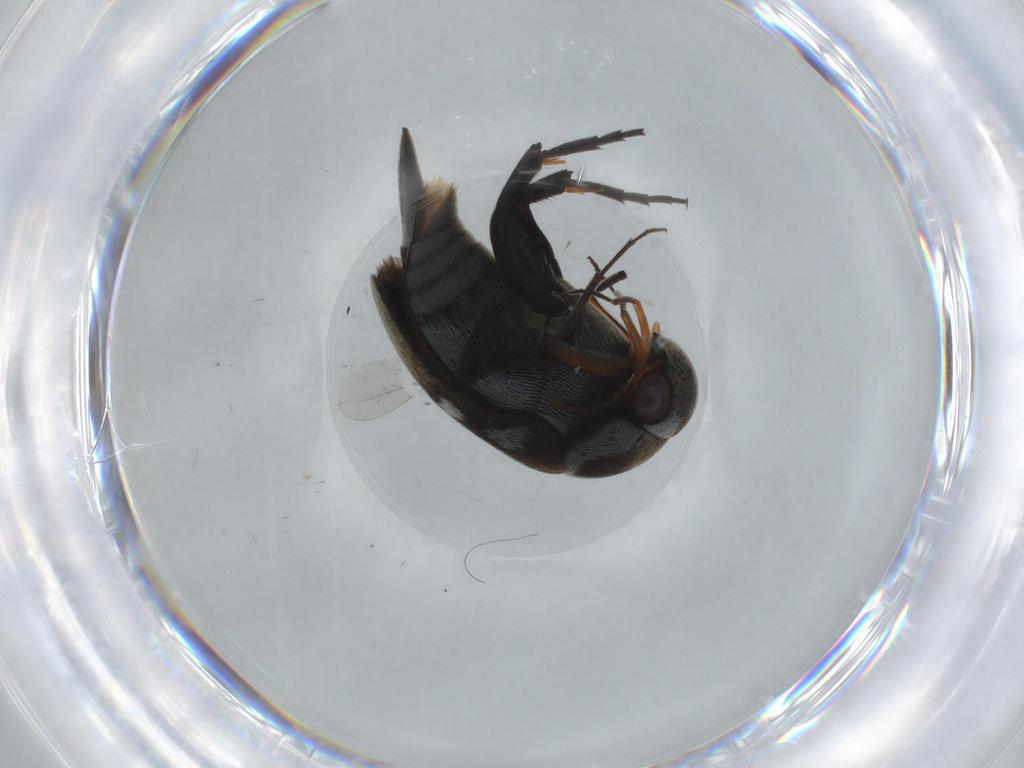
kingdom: Animalia
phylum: Arthropoda
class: Insecta
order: Coleoptera
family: Mordellidae
